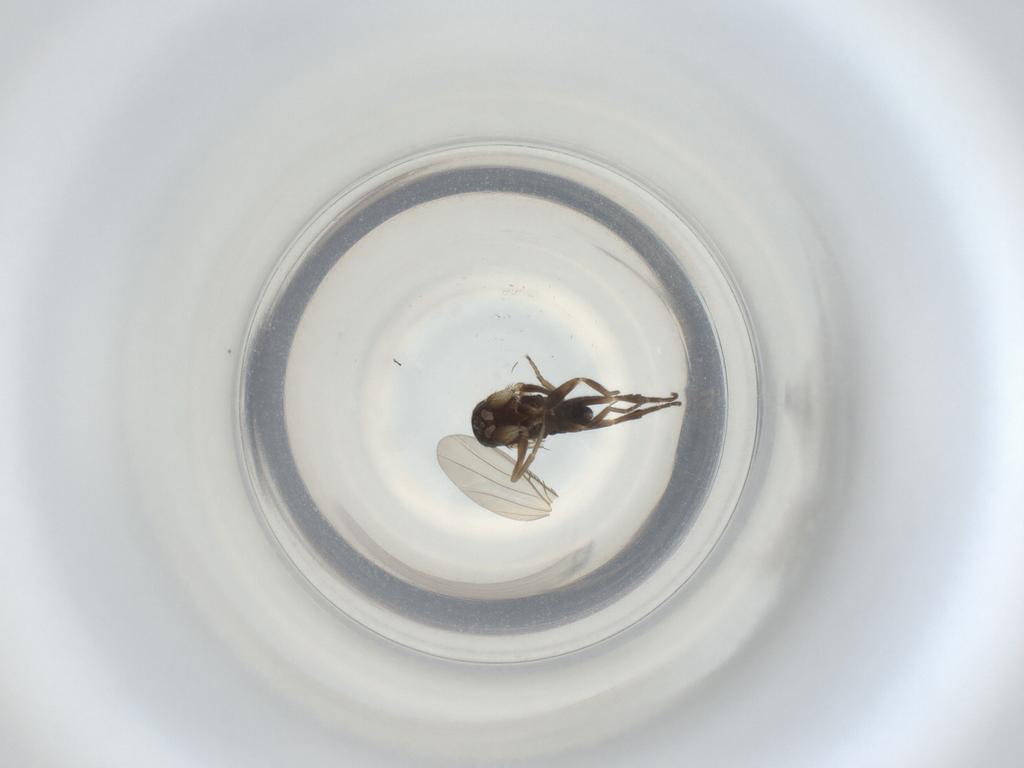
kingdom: Animalia
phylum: Arthropoda
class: Insecta
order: Diptera
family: Phoridae
